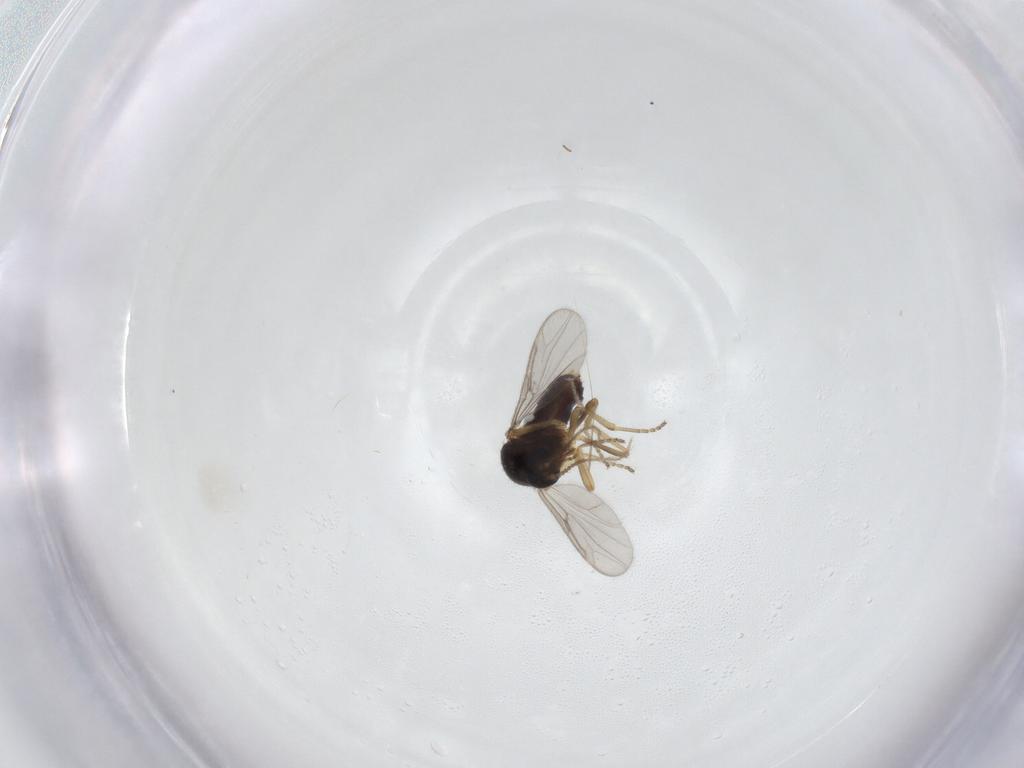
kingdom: Animalia
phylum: Arthropoda
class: Insecta
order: Diptera
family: Ceratopogonidae
